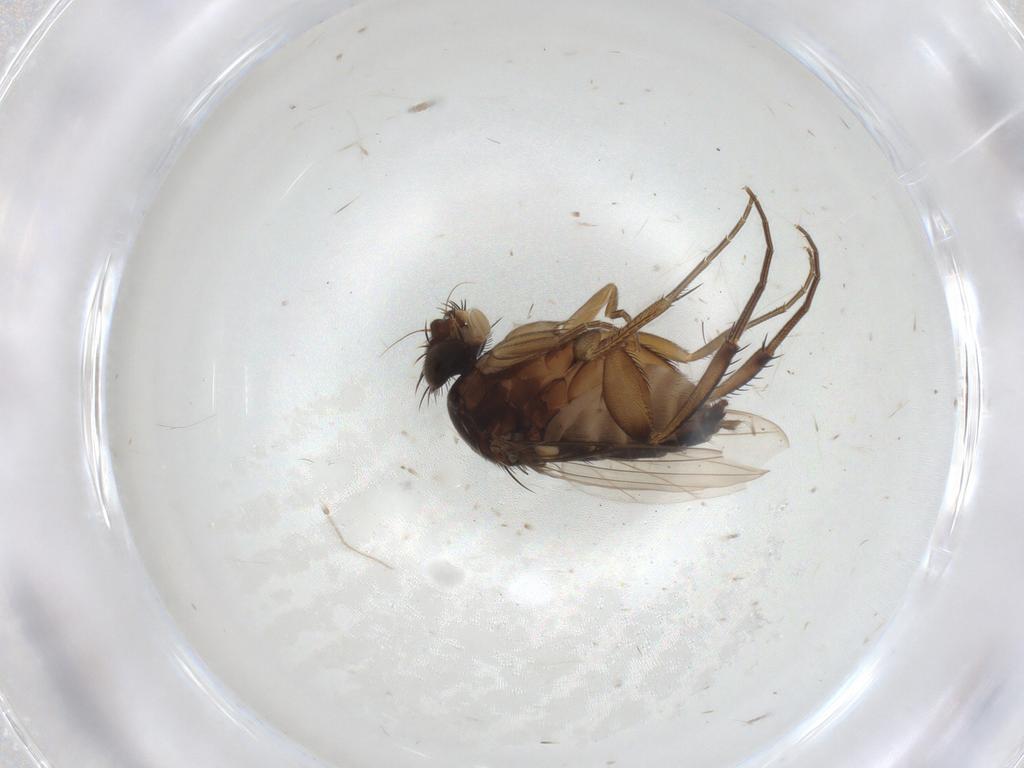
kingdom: Animalia
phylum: Arthropoda
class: Insecta
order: Diptera
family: Phoridae
